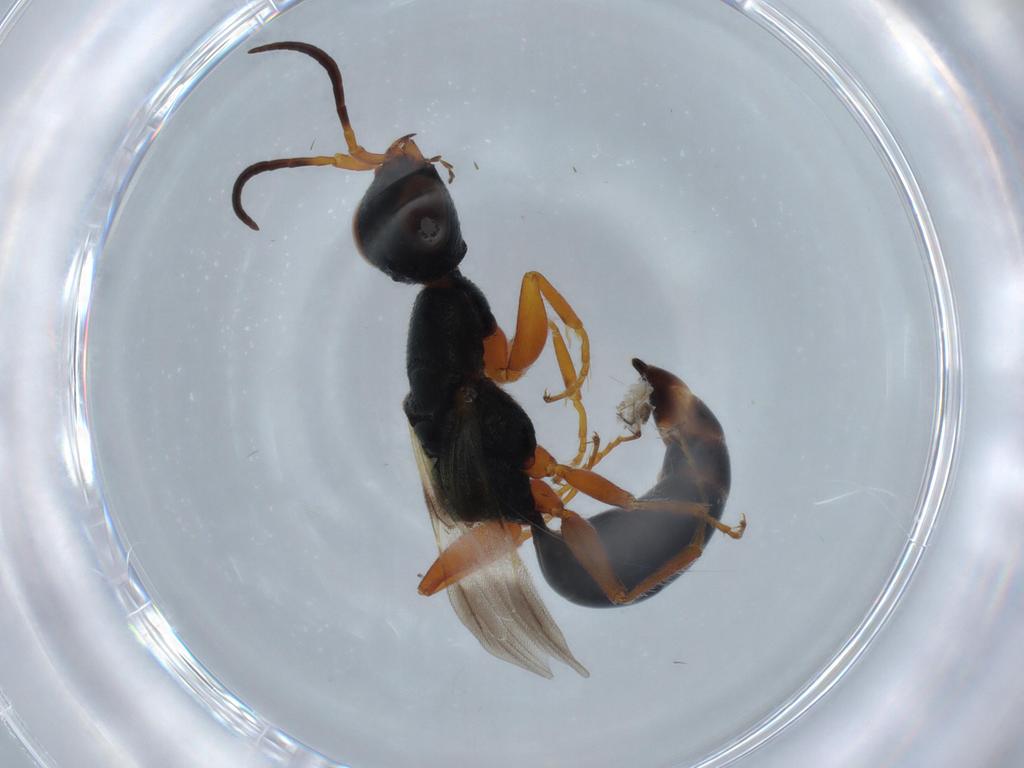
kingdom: Animalia
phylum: Arthropoda
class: Insecta
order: Hymenoptera
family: Bethylidae
